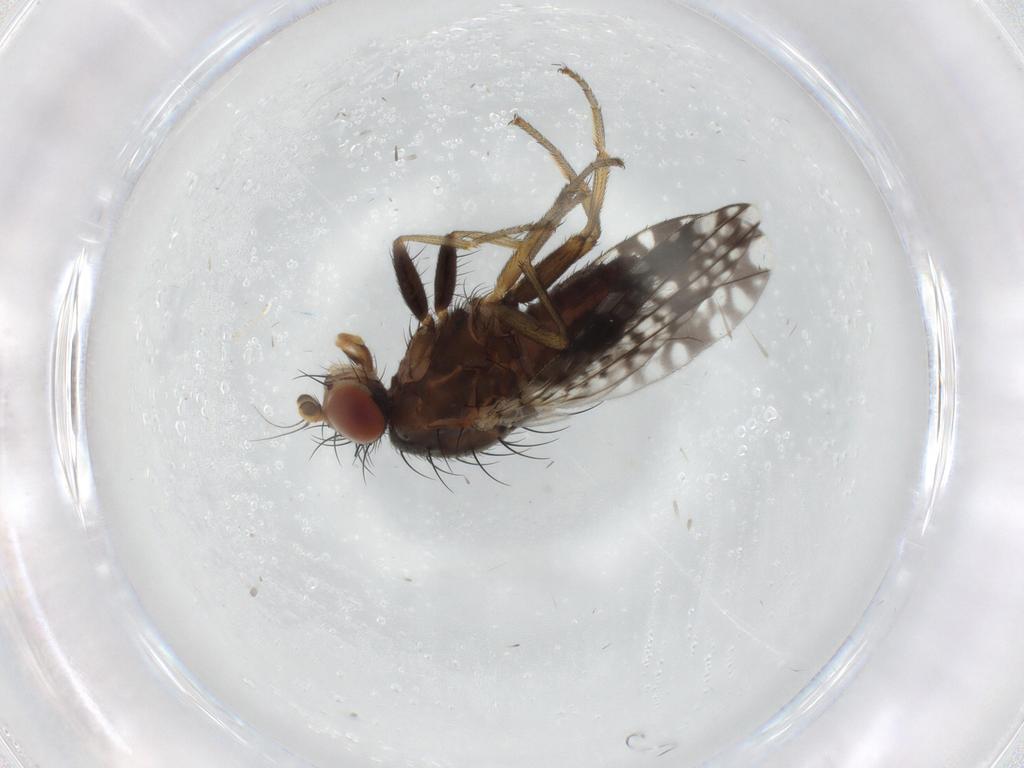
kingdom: Animalia
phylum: Arthropoda
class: Insecta
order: Diptera
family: Tephritidae
